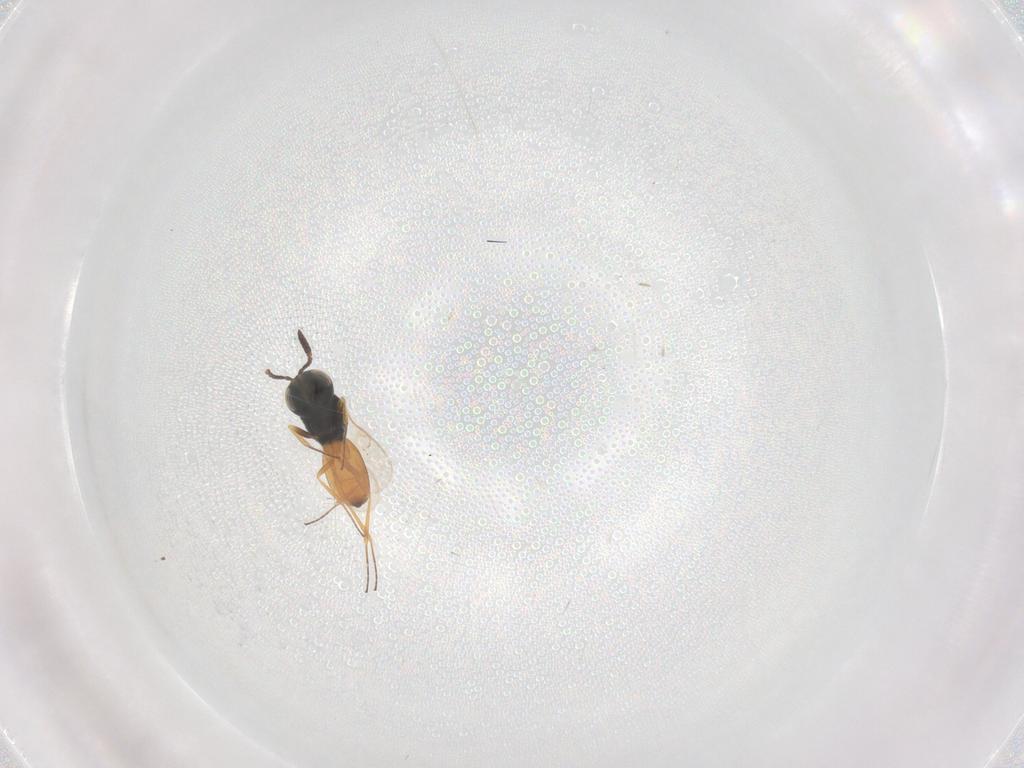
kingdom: Animalia
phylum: Arthropoda
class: Insecta
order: Hymenoptera
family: Scelionidae
